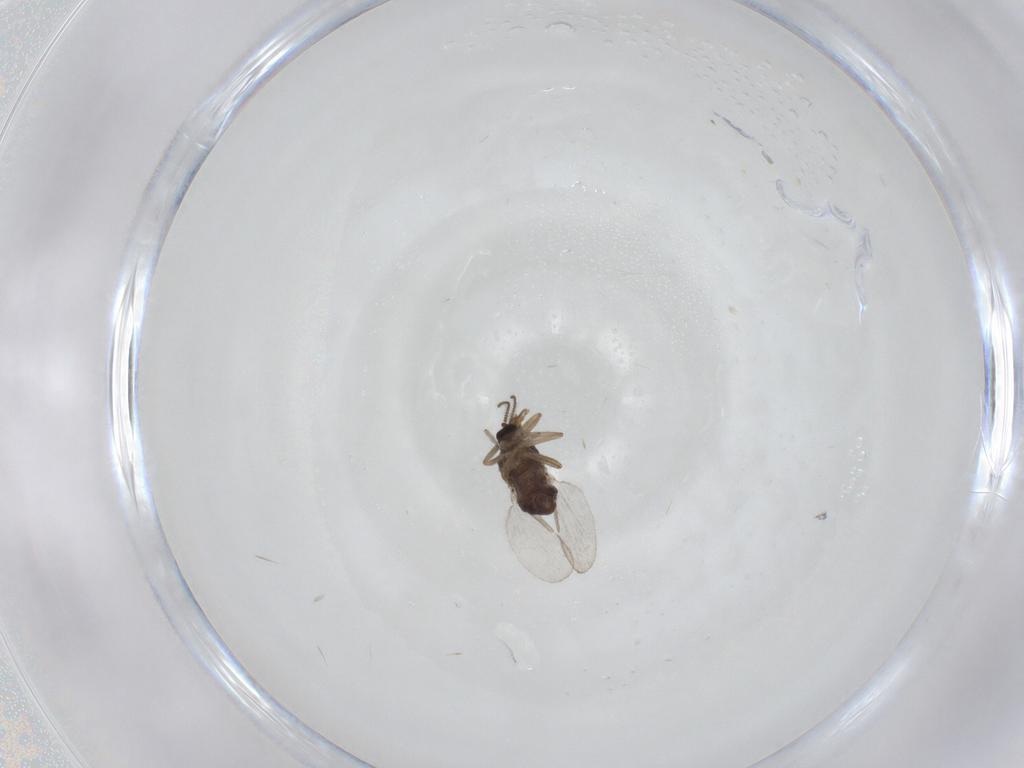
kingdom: Animalia
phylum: Arthropoda
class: Insecta
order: Diptera
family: Ceratopogonidae
